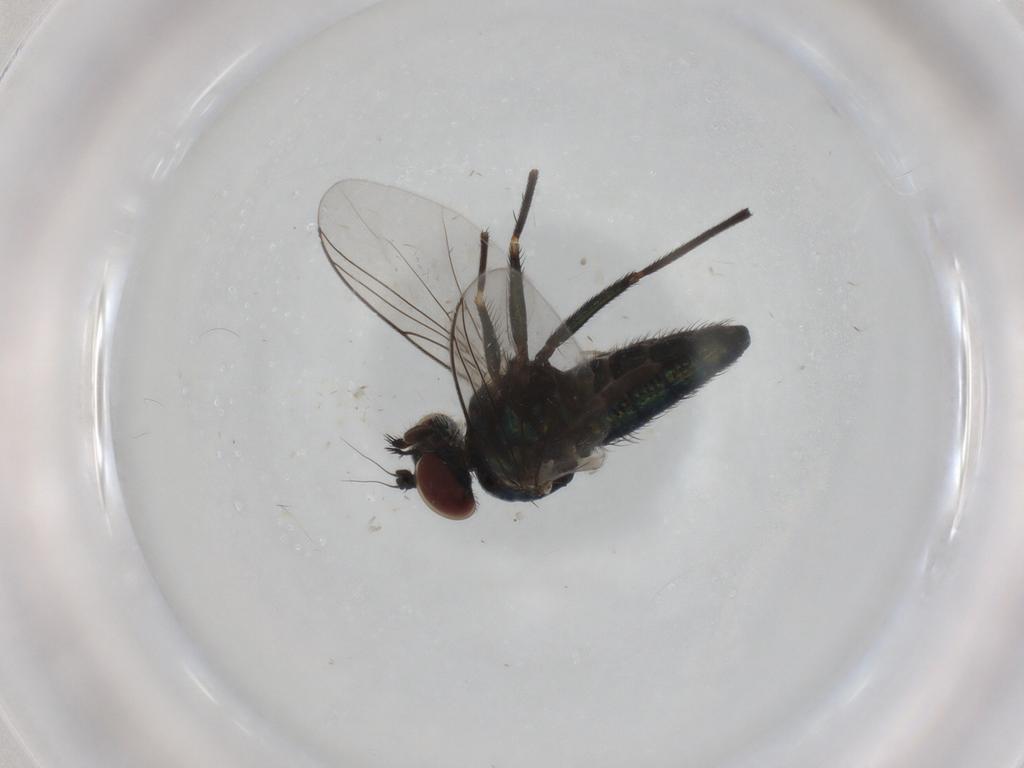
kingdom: Animalia
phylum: Arthropoda
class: Insecta
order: Diptera
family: Dolichopodidae
